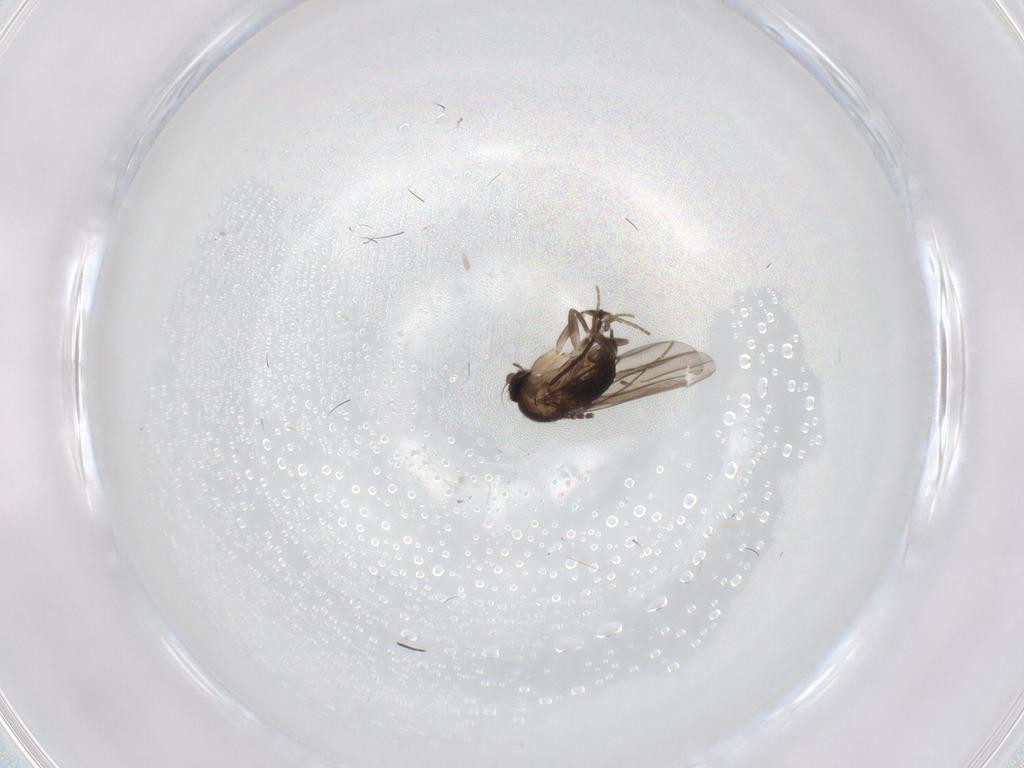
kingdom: Animalia
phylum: Arthropoda
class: Insecta
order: Diptera
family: Ditomyiidae
